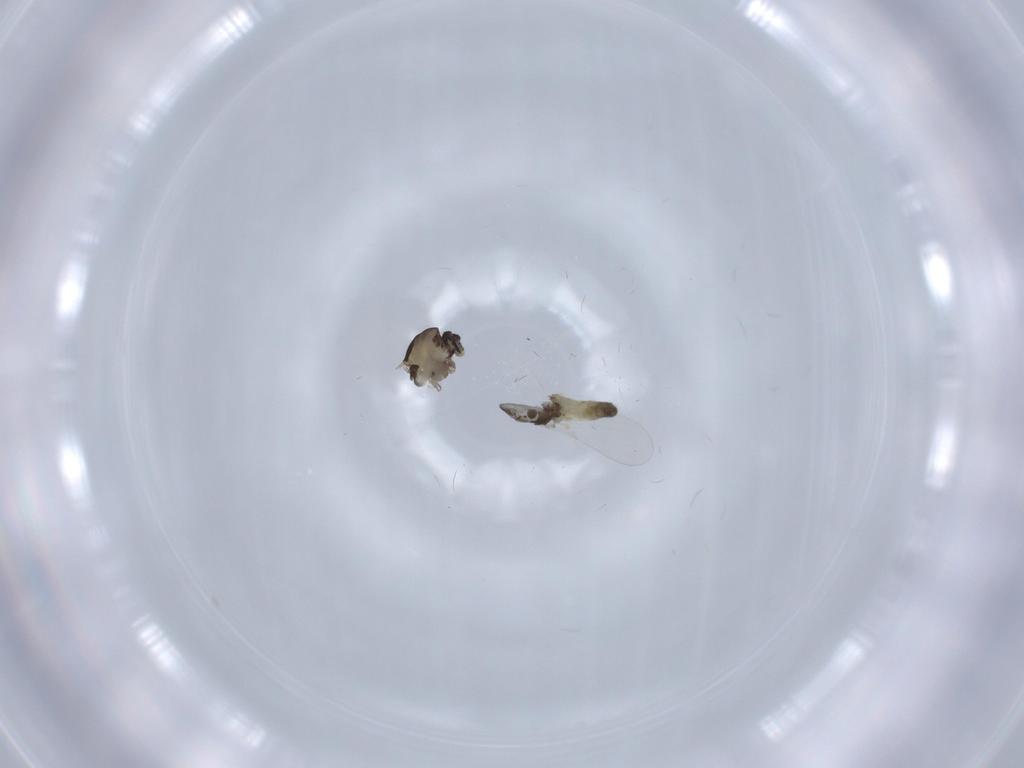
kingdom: Animalia
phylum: Arthropoda
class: Insecta
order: Diptera
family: Chironomidae
